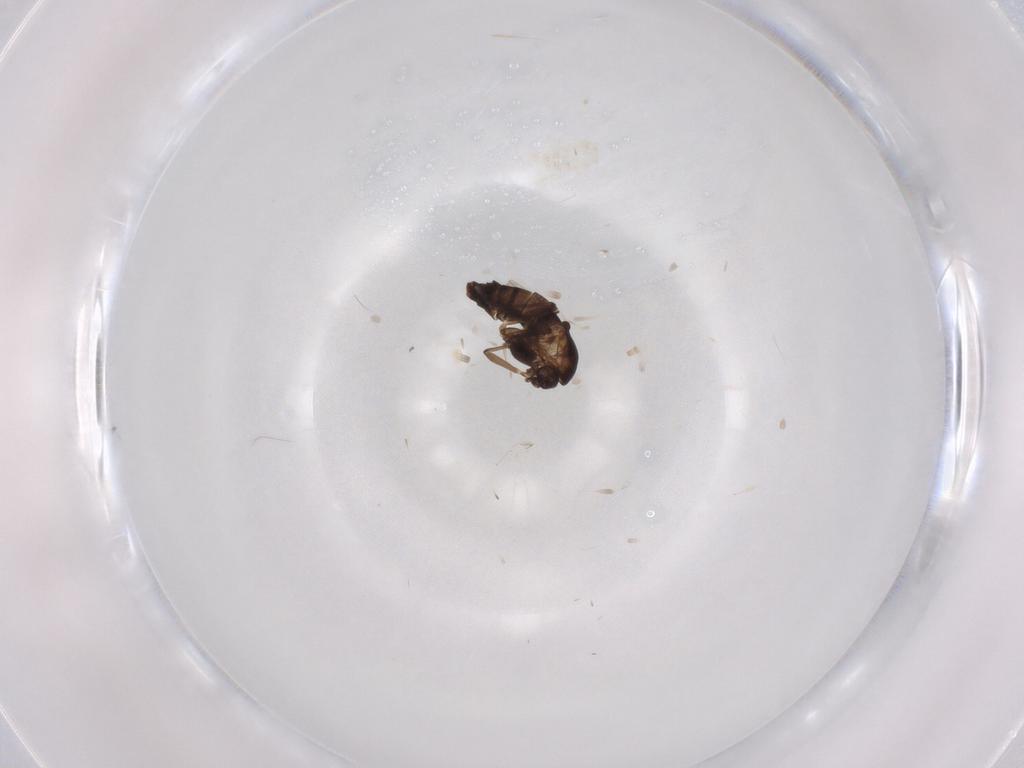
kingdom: Animalia
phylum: Arthropoda
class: Insecta
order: Diptera
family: Chironomidae
